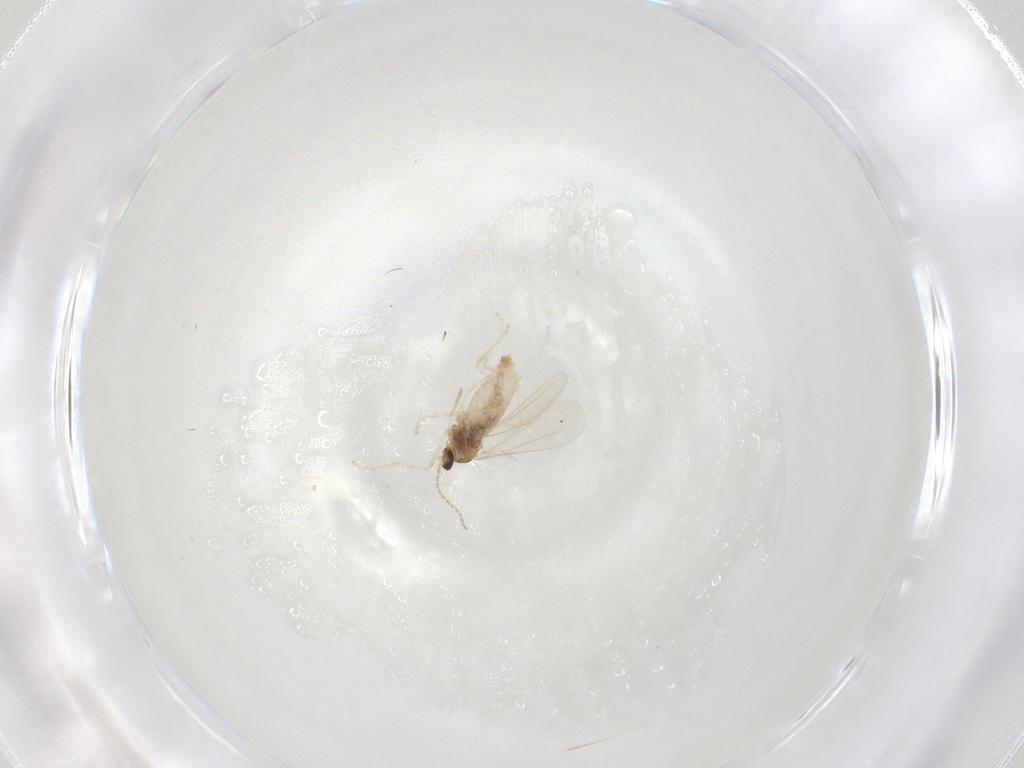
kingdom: Animalia
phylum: Arthropoda
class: Insecta
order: Diptera
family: Cecidomyiidae
